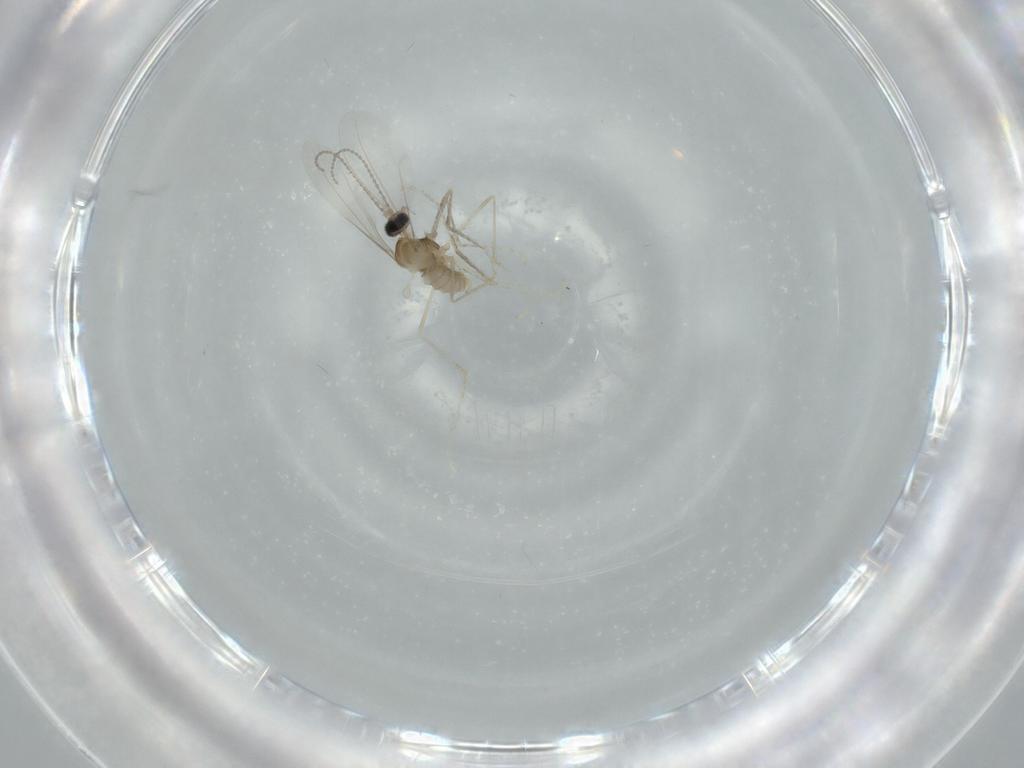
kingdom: Animalia
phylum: Arthropoda
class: Insecta
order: Diptera
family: Cecidomyiidae
